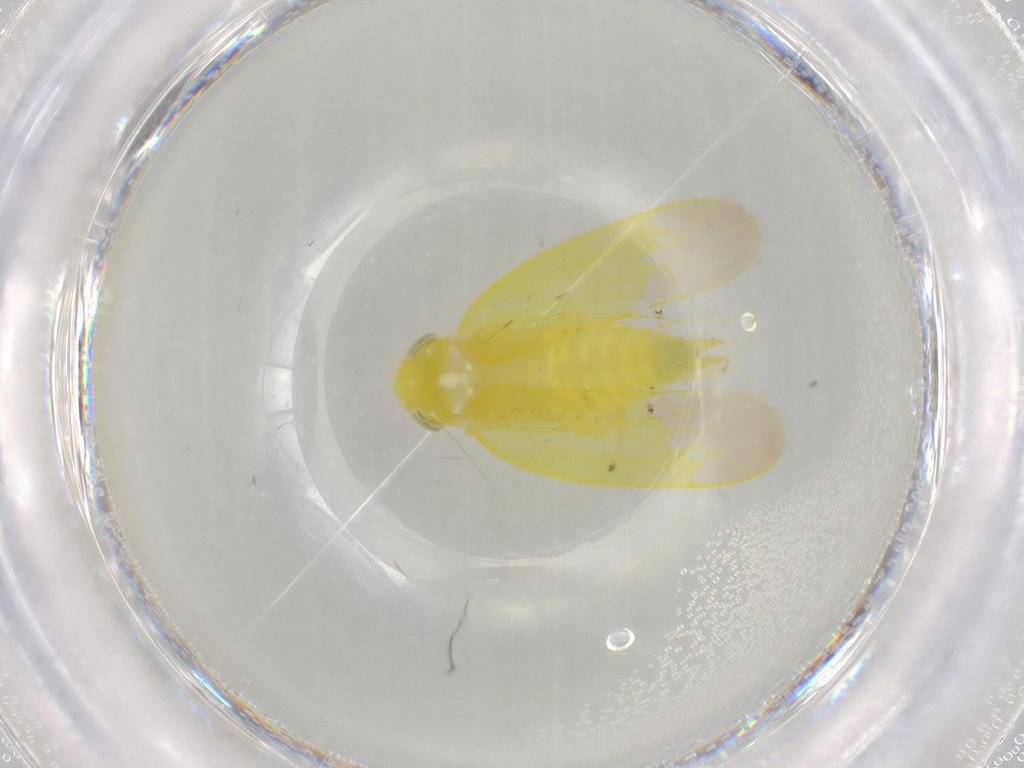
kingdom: Animalia
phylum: Arthropoda
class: Insecta
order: Hemiptera
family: Cicadellidae
